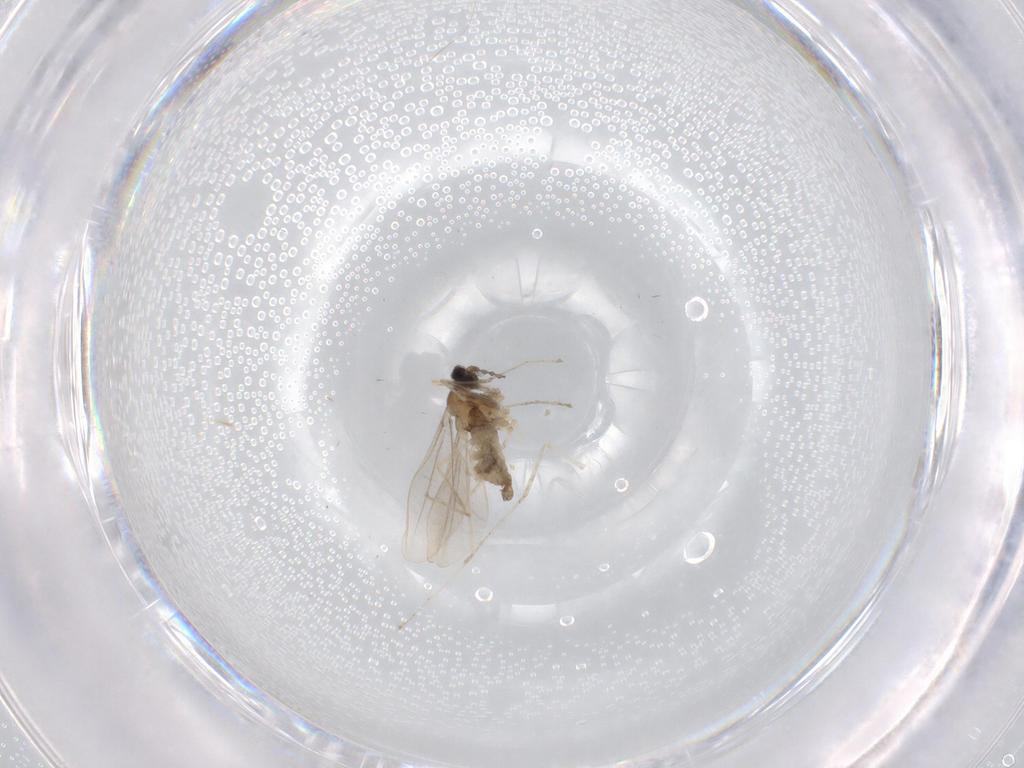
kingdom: Animalia
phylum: Arthropoda
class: Insecta
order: Diptera
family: Cecidomyiidae
